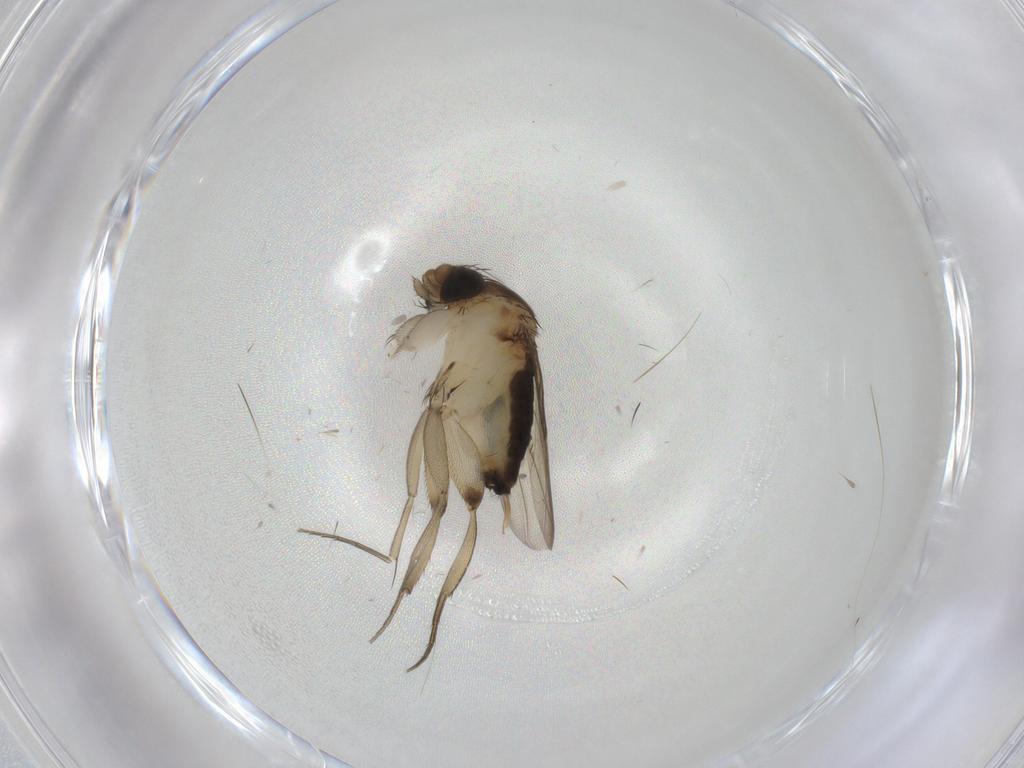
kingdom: Animalia
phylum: Arthropoda
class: Insecta
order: Diptera
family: Phoridae
